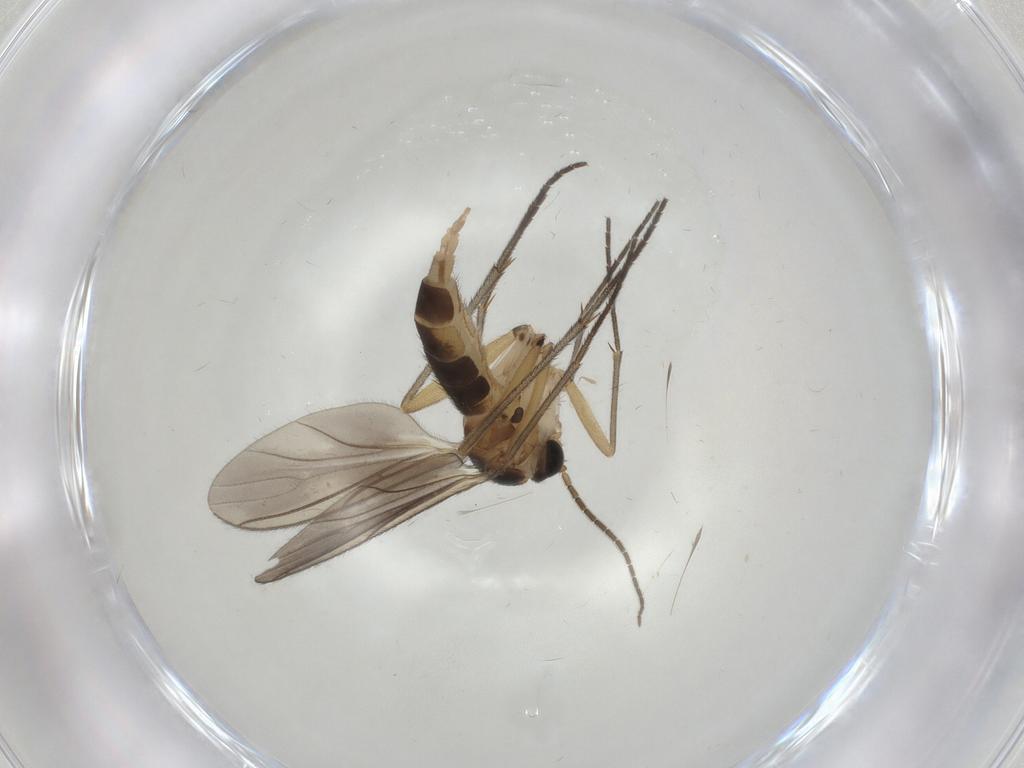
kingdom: Animalia
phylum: Arthropoda
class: Insecta
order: Diptera
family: Sciaridae
